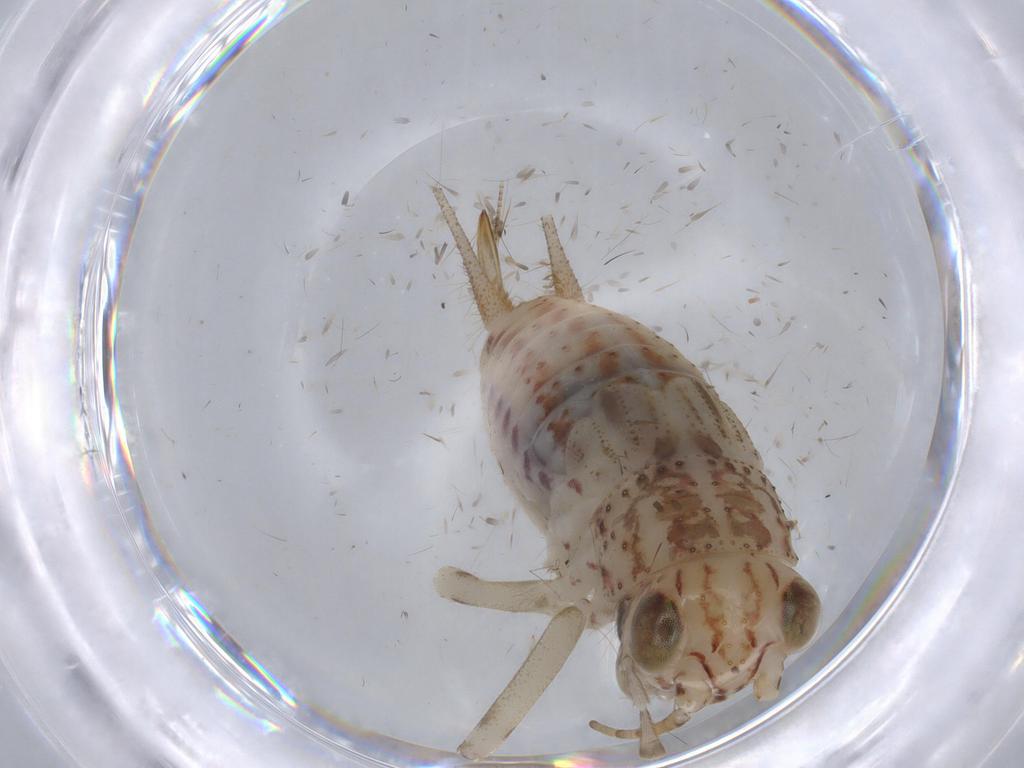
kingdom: Animalia
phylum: Arthropoda
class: Insecta
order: Orthoptera
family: Trigonidiidae
